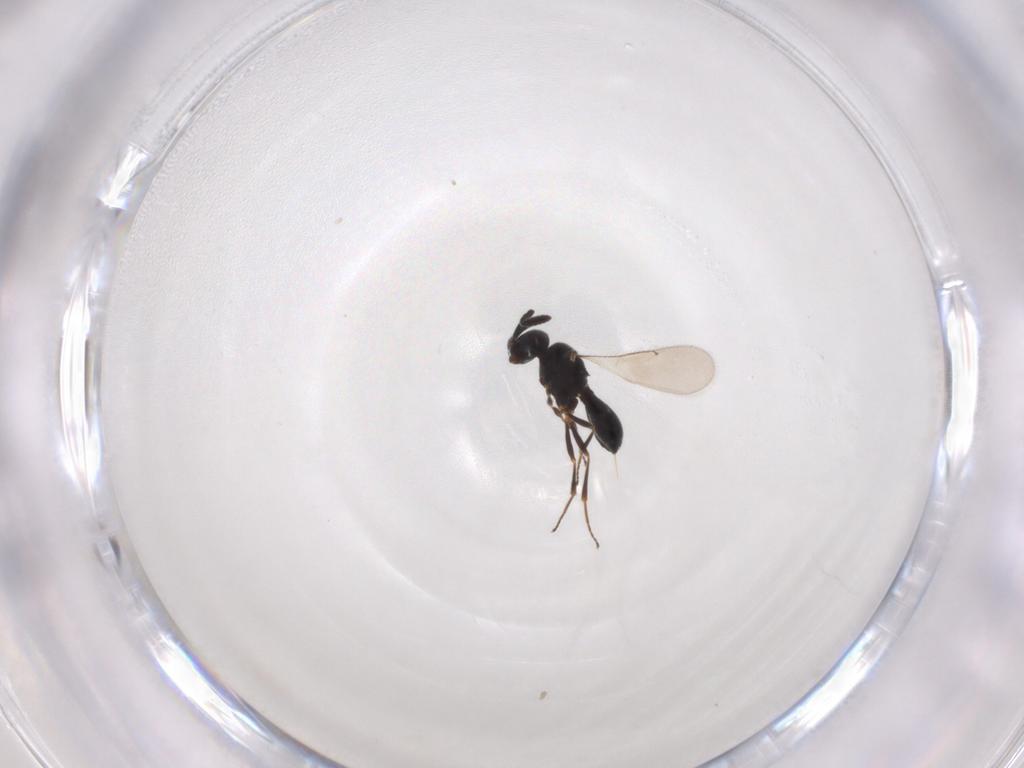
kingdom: Animalia
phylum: Arthropoda
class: Insecta
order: Hymenoptera
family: Scelionidae
